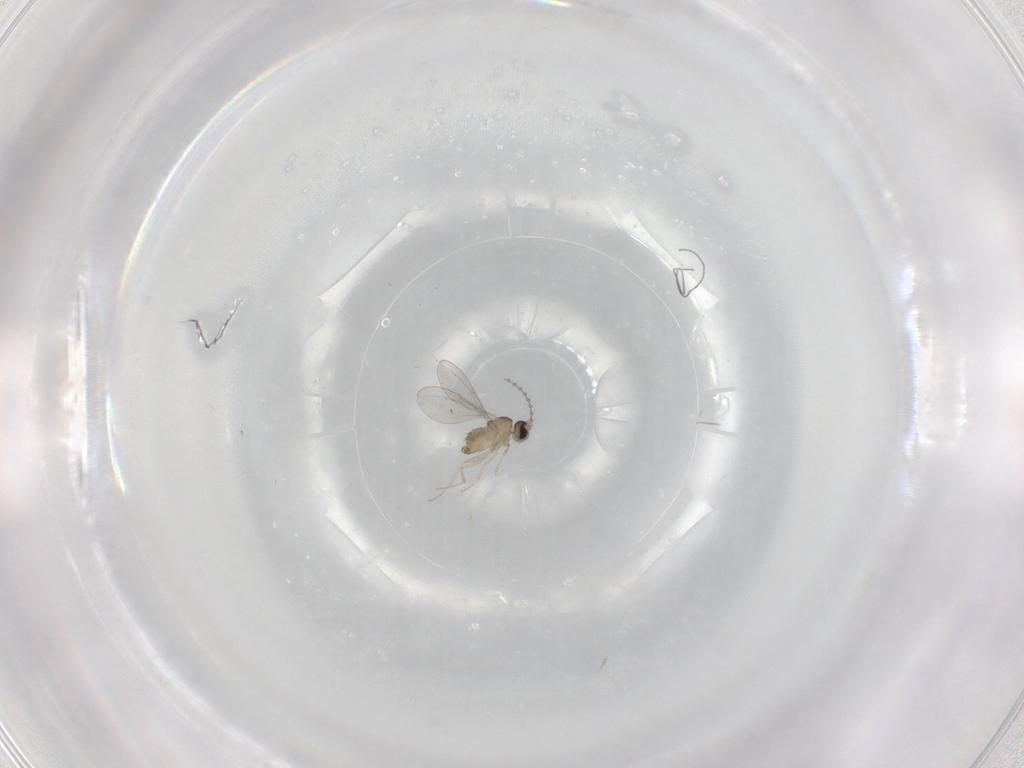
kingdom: Animalia
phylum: Arthropoda
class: Insecta
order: Diptera
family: Cecidomyiidae
